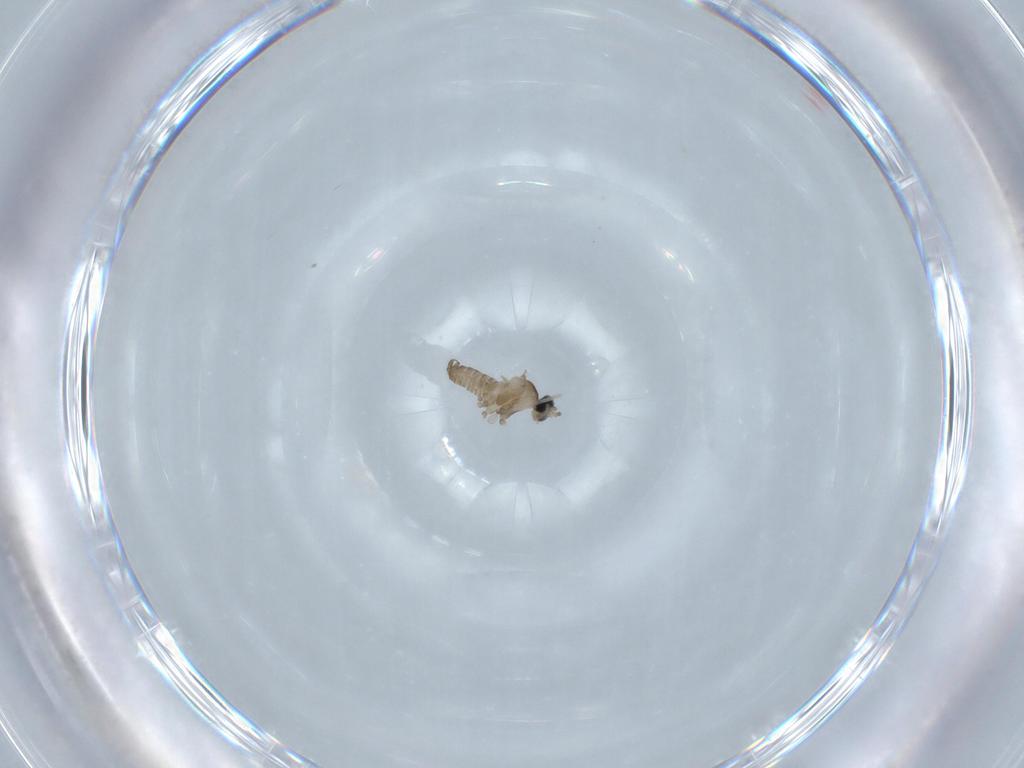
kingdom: Animalia
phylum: Arthropoda
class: Insecta
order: Diptera
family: Cecidomyiidae
